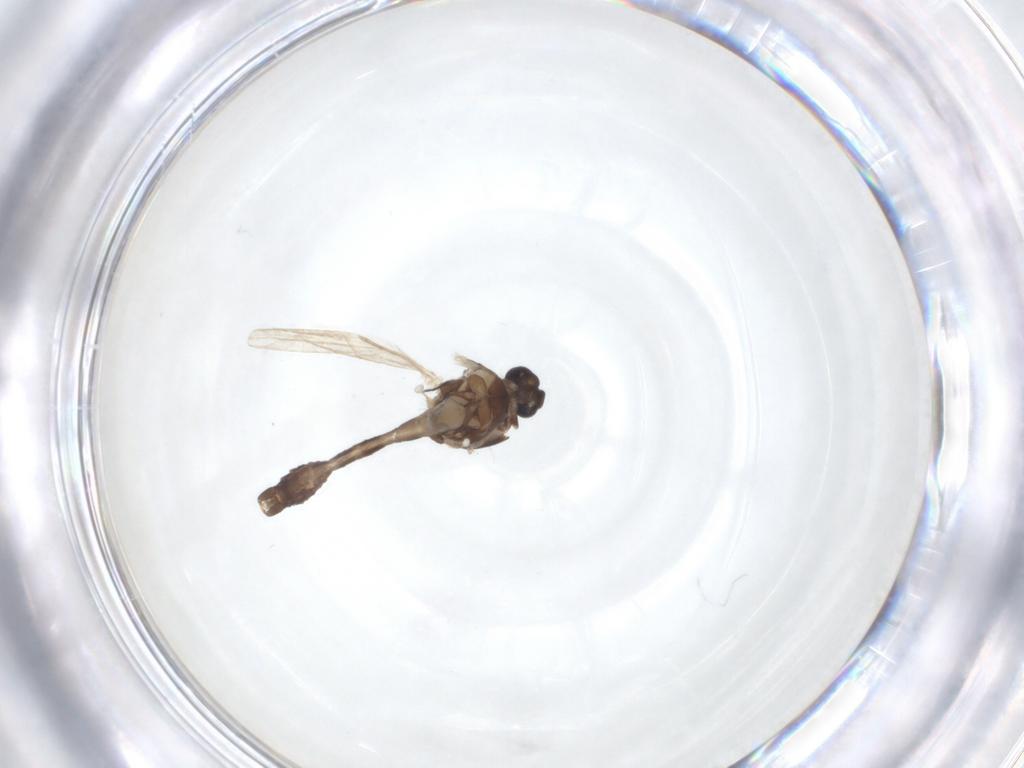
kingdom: Animalia
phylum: Arthropoda
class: Insecta
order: Diptera
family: Ceratopogonidae
